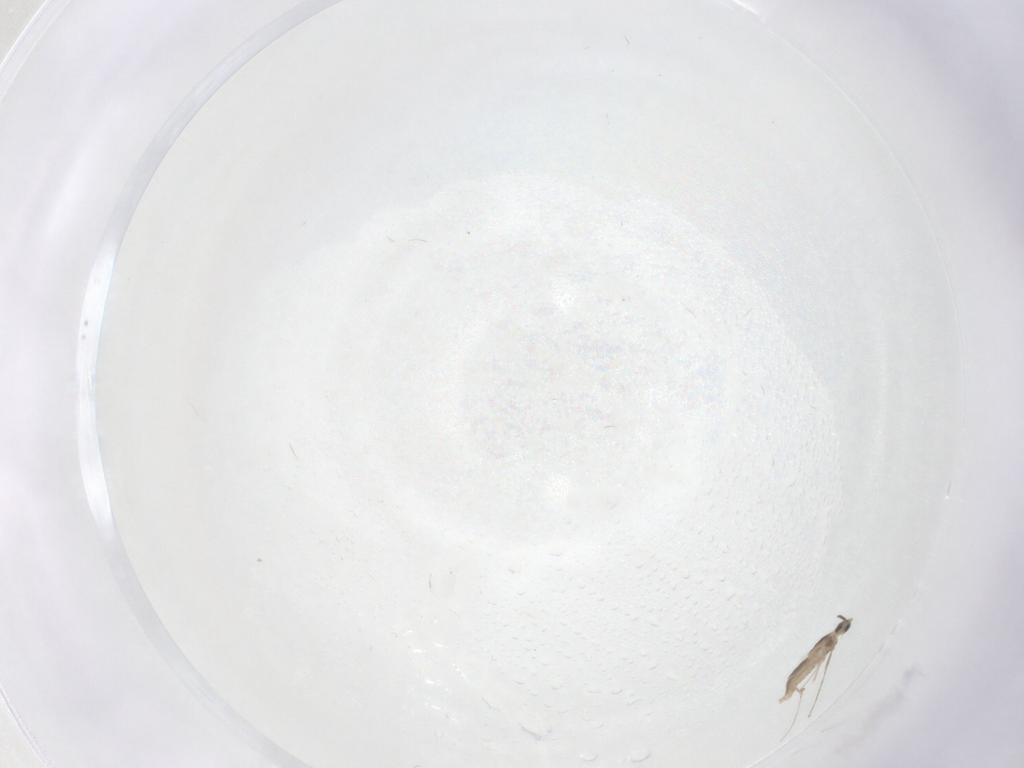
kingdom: Animalia
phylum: Arthropoda
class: Insecta
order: Diptera
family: Cecidomyiidae
